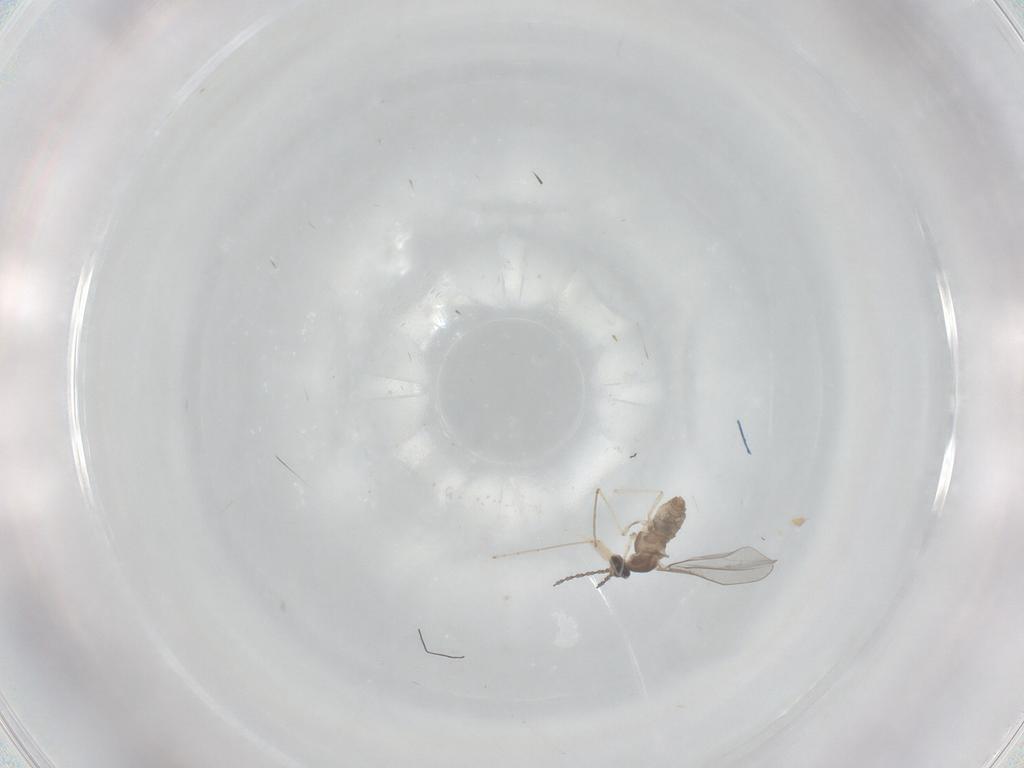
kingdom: Animalia
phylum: Arthropoda
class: Insecta
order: Diptera
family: Cecidomyiidae
